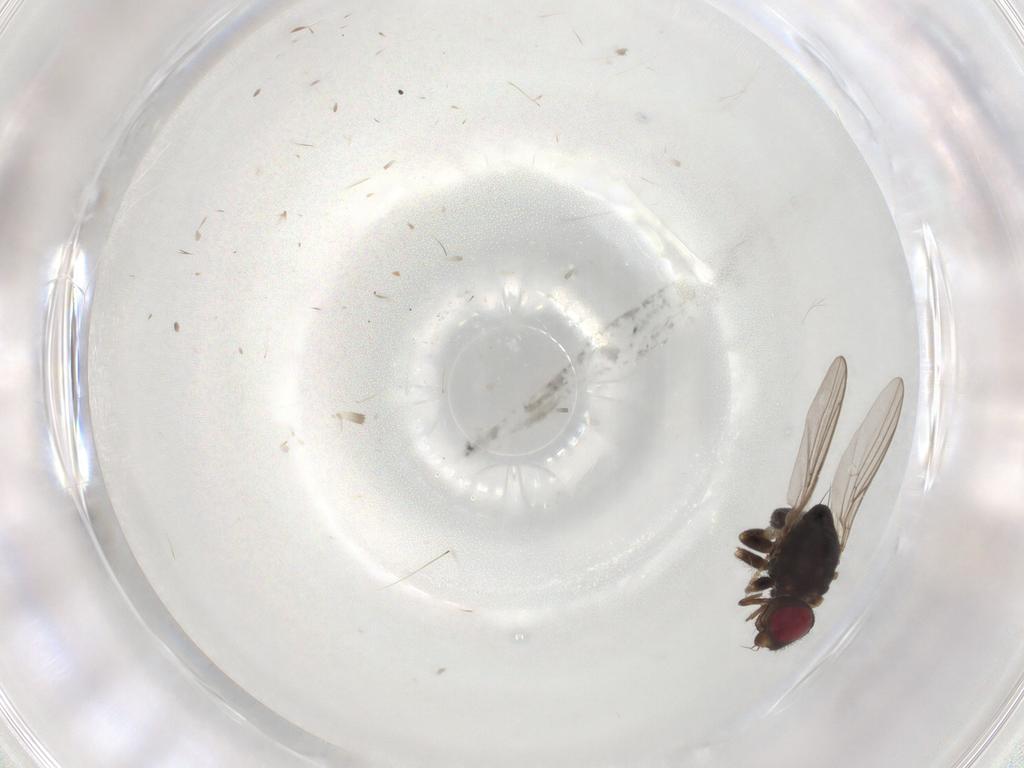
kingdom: Animalia
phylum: Arthropoda
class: Insecta
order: Diptera
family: Chloropidae
